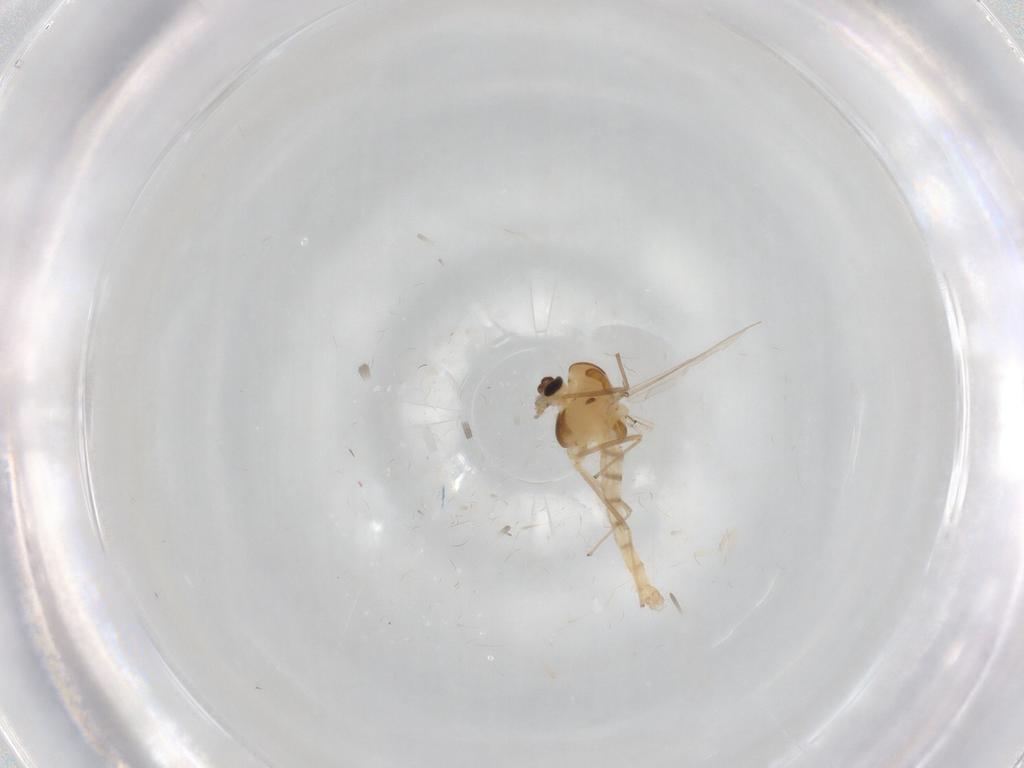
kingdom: Animalia
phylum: Arthropoda
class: Insecta
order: Diptera
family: Chironomidae
